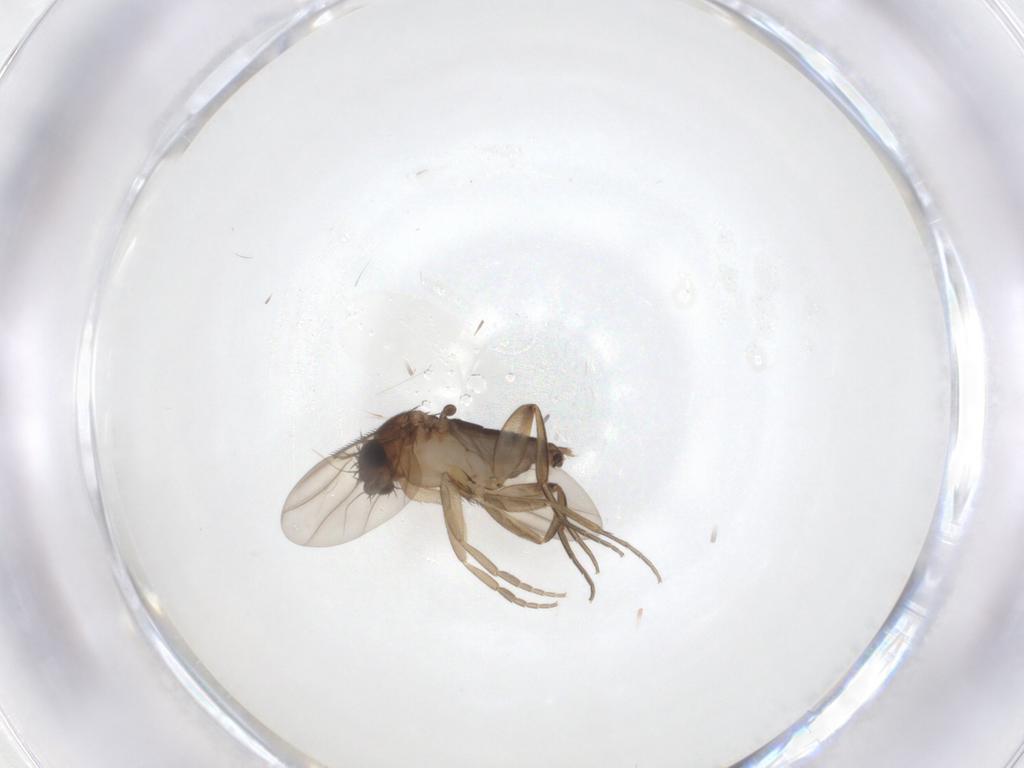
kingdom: Animalia
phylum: Arthropoda
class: Insecta
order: Diptera
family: Phoridae
